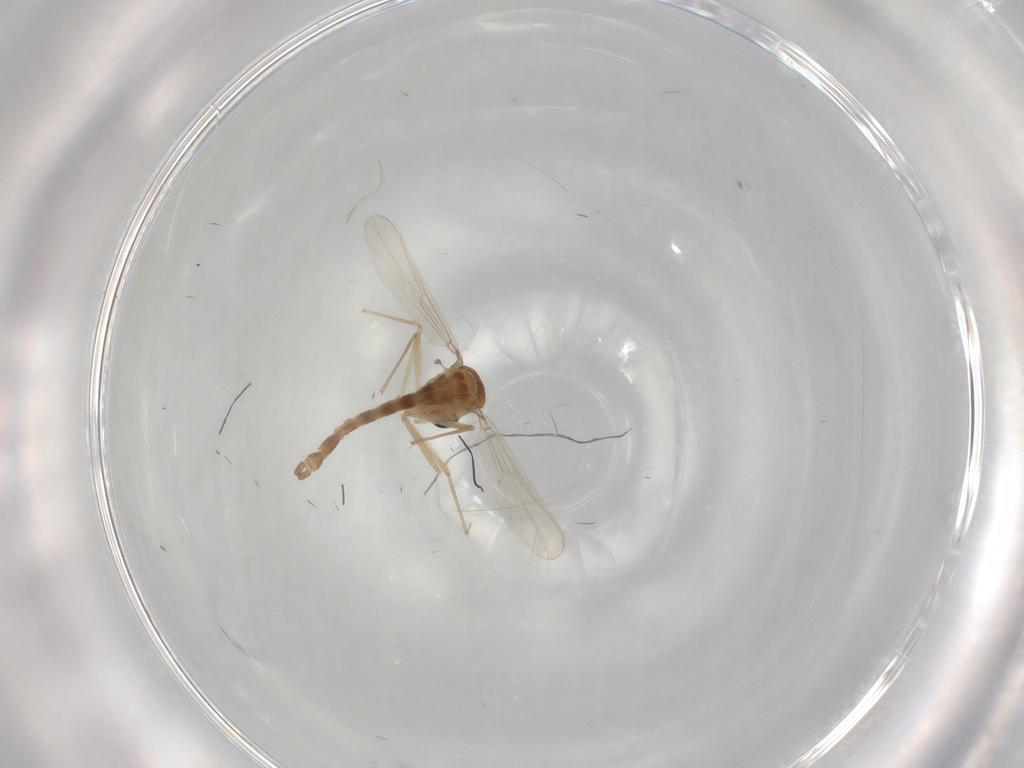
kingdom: Animalia
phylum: Arthropoda
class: Insecta
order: Diptera
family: Chironomidae
